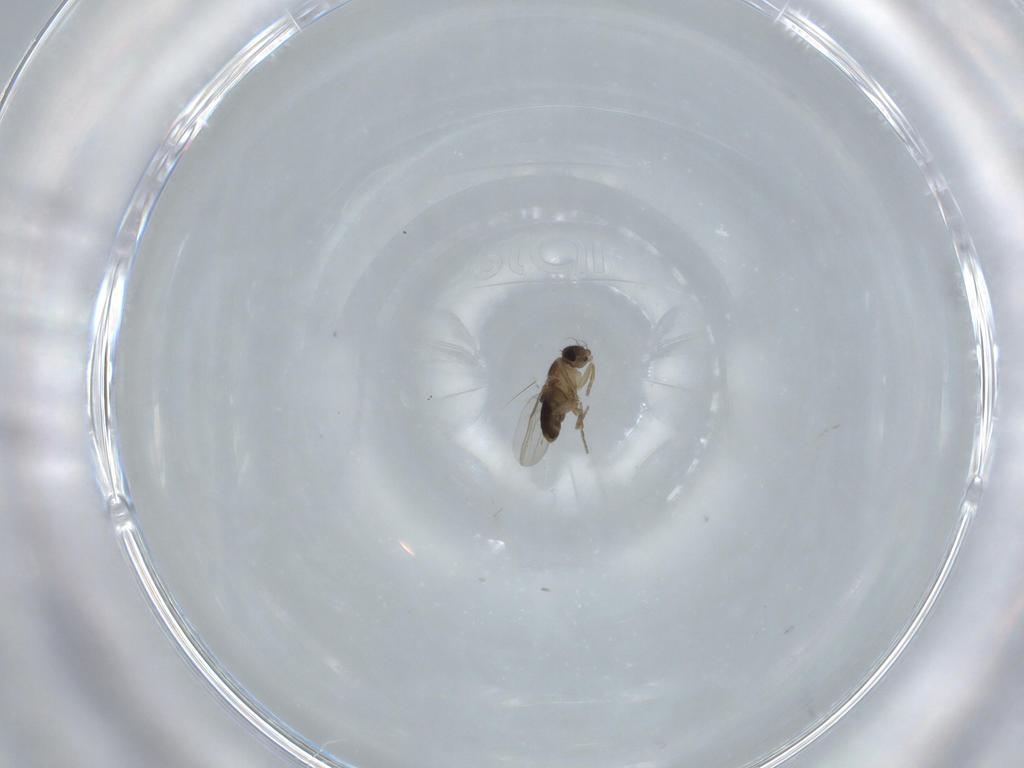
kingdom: Animalia
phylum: Arthropoda
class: Insecta
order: Diptera
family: Phoridae
